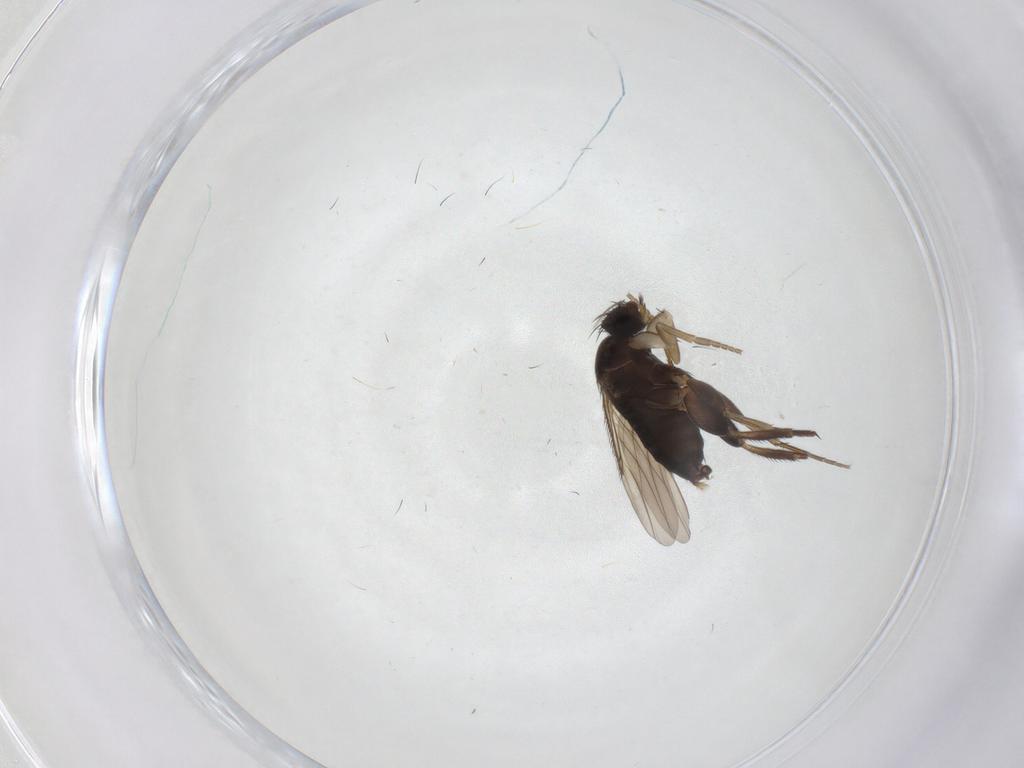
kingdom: Animalia
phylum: Arthropoda
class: Insecta
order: Diptera
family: Phoridae
